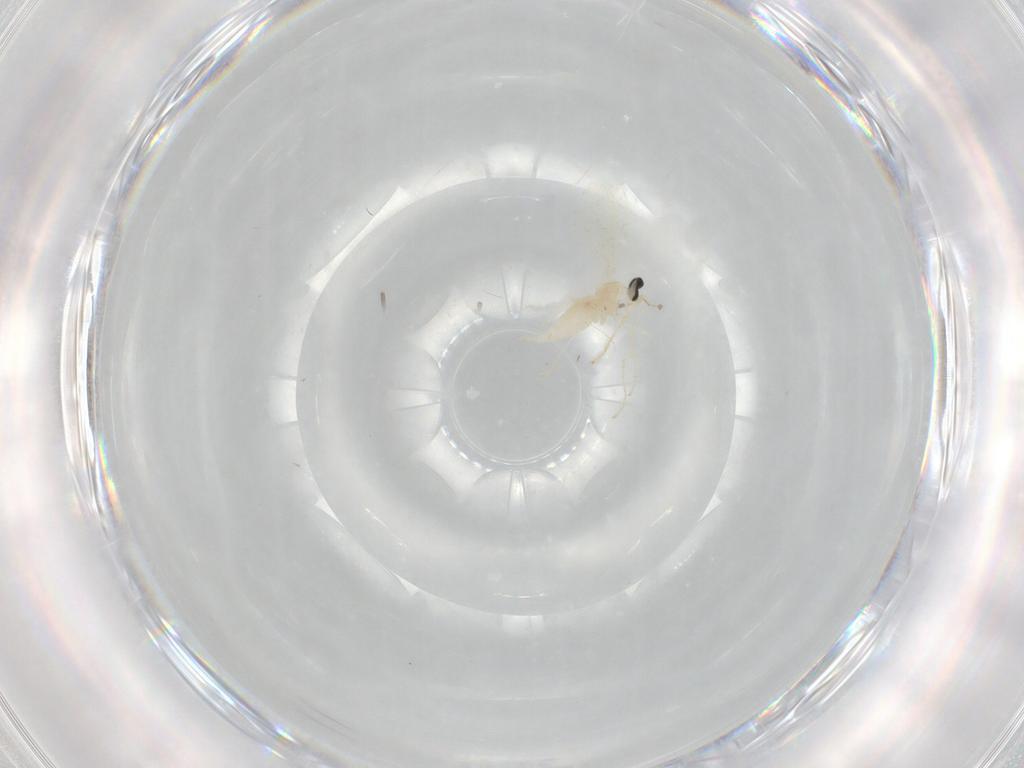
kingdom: Animalia
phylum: Arthropoda
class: Insecta
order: Diptera
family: Cecidomyiidae
